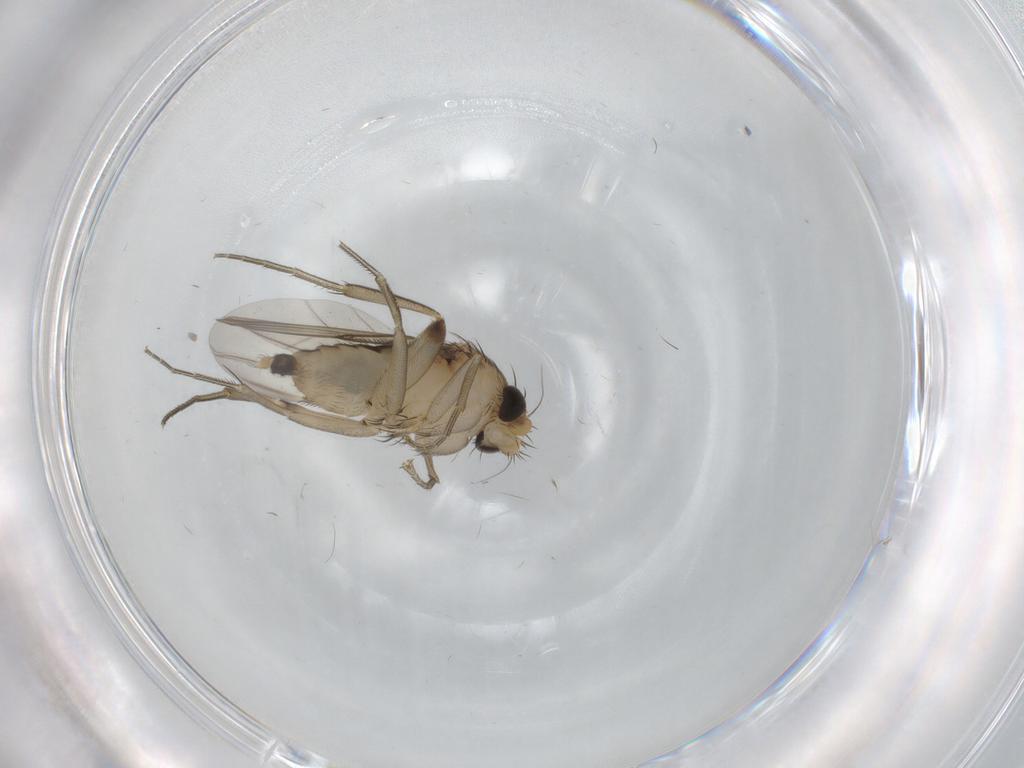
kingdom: Animalia
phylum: Arthropoda
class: Insecta
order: Diptera
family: Phoridae
